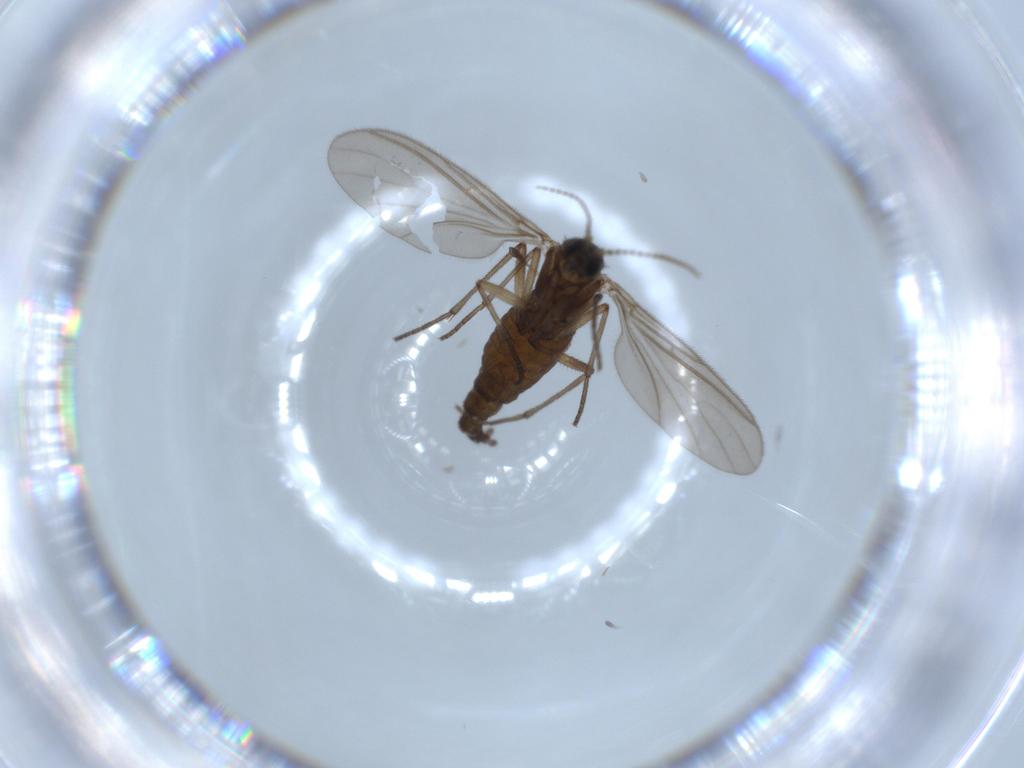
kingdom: Animalia
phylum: Arthropoda
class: Insecta
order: Diptera
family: Sciaridae
